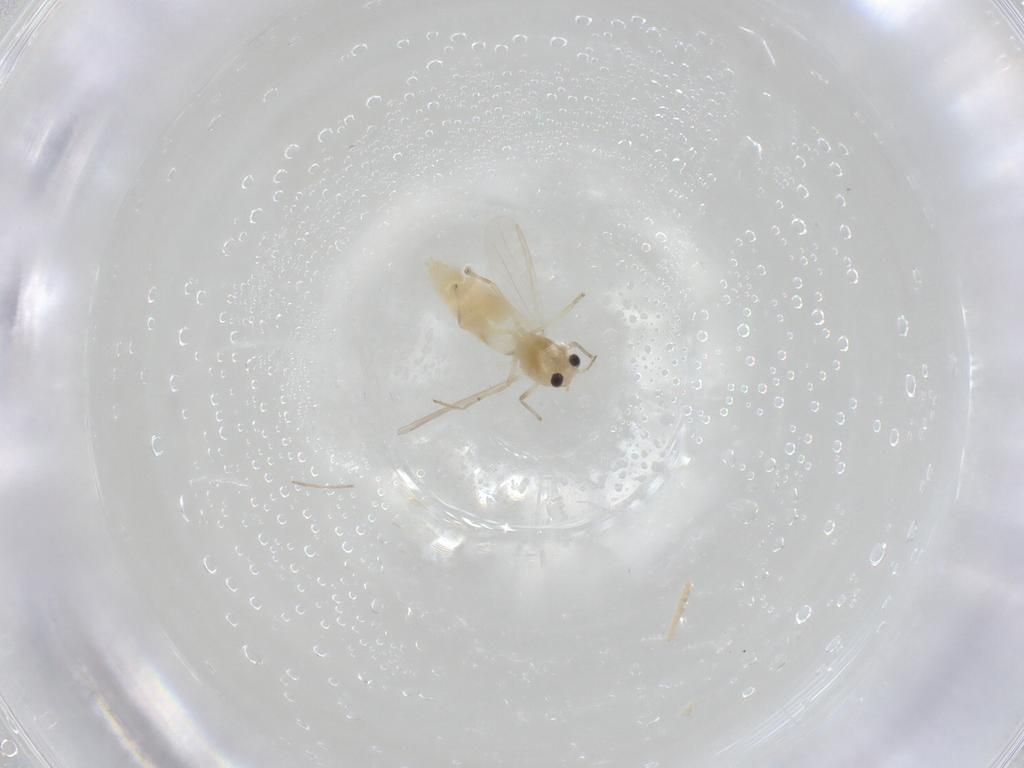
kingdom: Animalia
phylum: Arthropoda
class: Insecta
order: Diptera
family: Chironomidae
